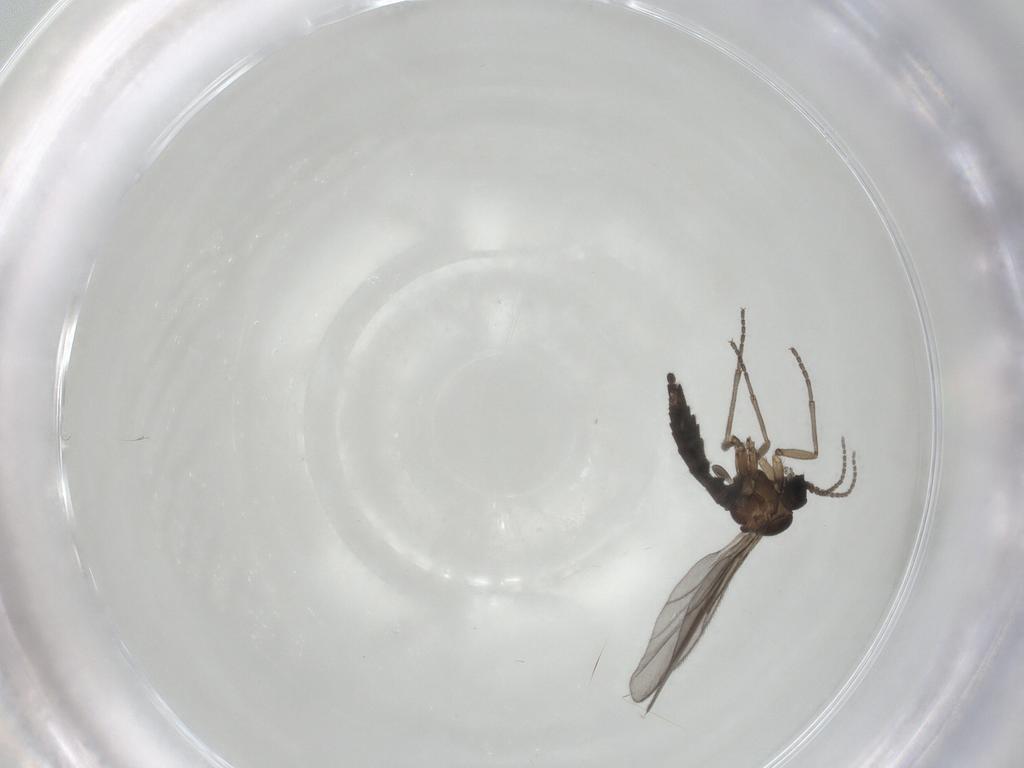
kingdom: Animalia
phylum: Arthropoda
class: Insecta
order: Diptera
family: Sciaridae
